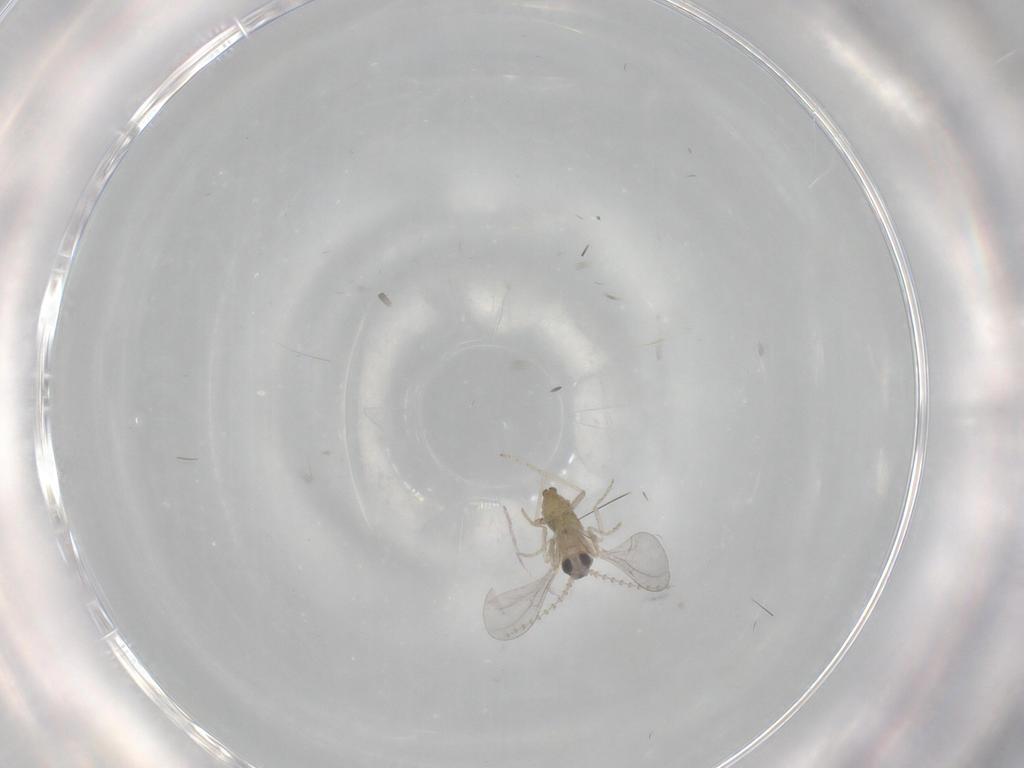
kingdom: Animalia
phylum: Arthropoda
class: Insecta
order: Diptera
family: Cecidomyiidae
